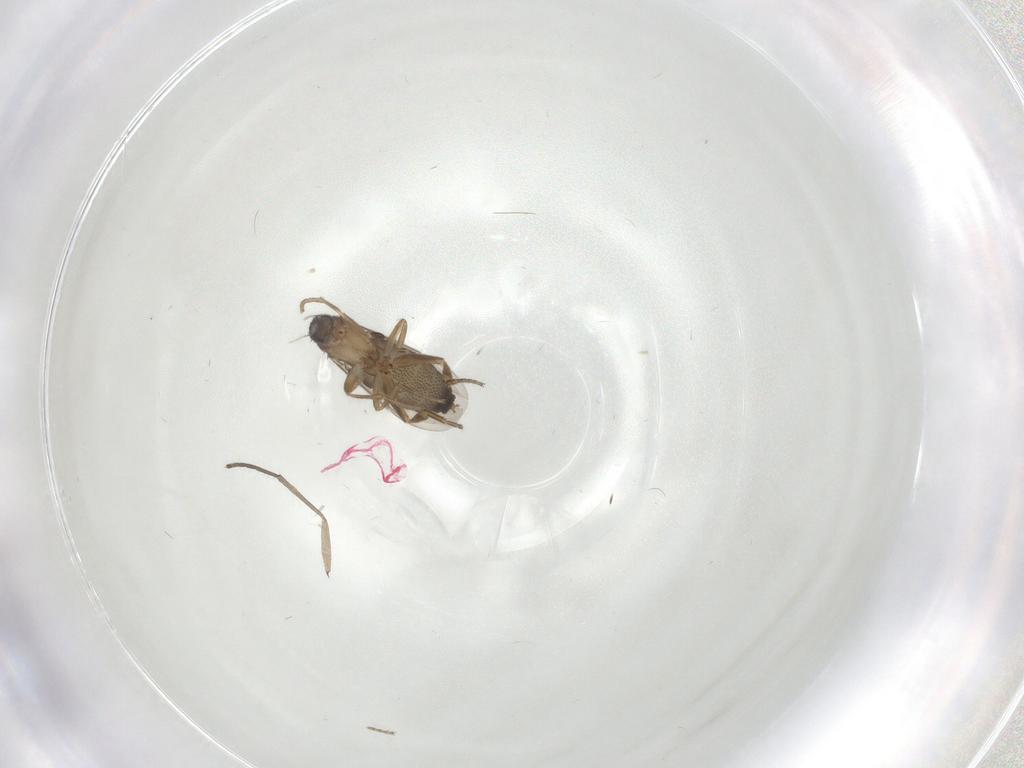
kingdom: Animalia
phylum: Arthropoda
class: Insecta
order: Diptera
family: Phoridae
